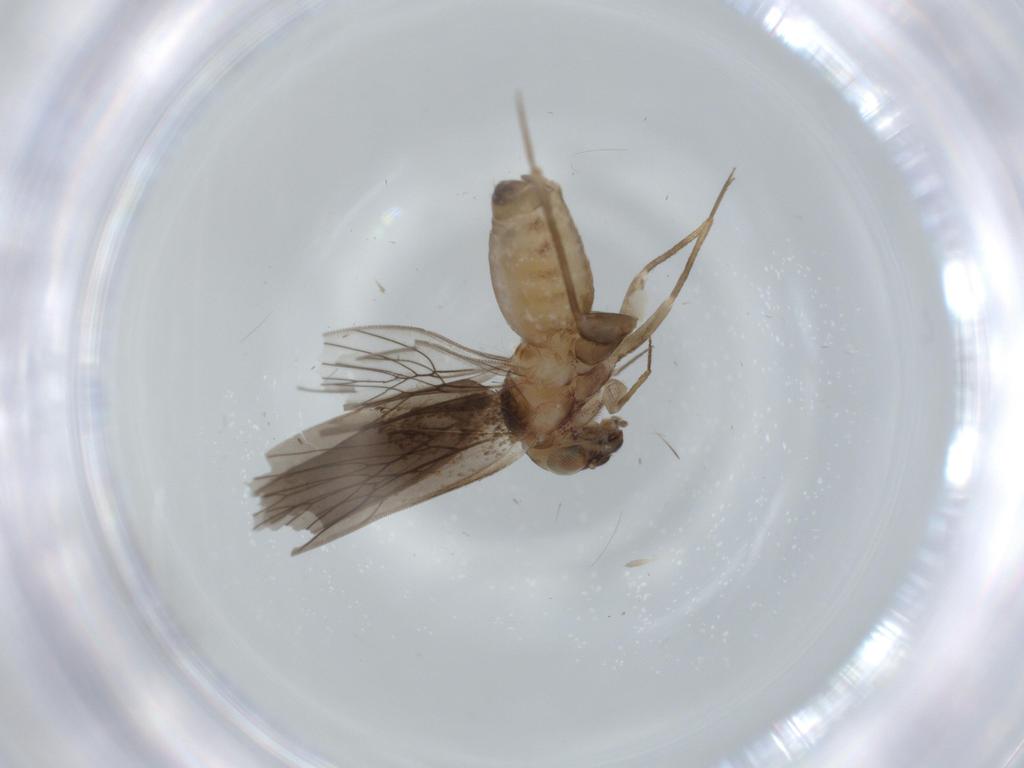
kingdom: Animalia
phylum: Arthropoda
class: Insecta
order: Psocodea
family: Lepidopsocidae
